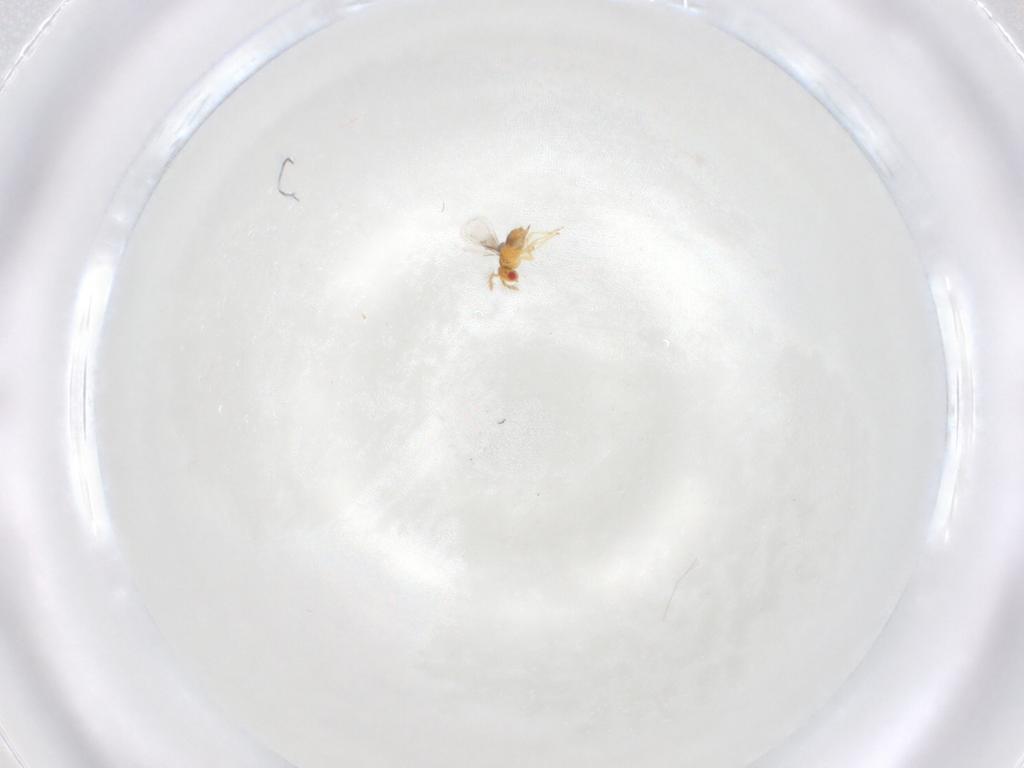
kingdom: Animalia
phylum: Arthropoda
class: Insecta
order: Hymenoptera
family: Trichogrammatidae
